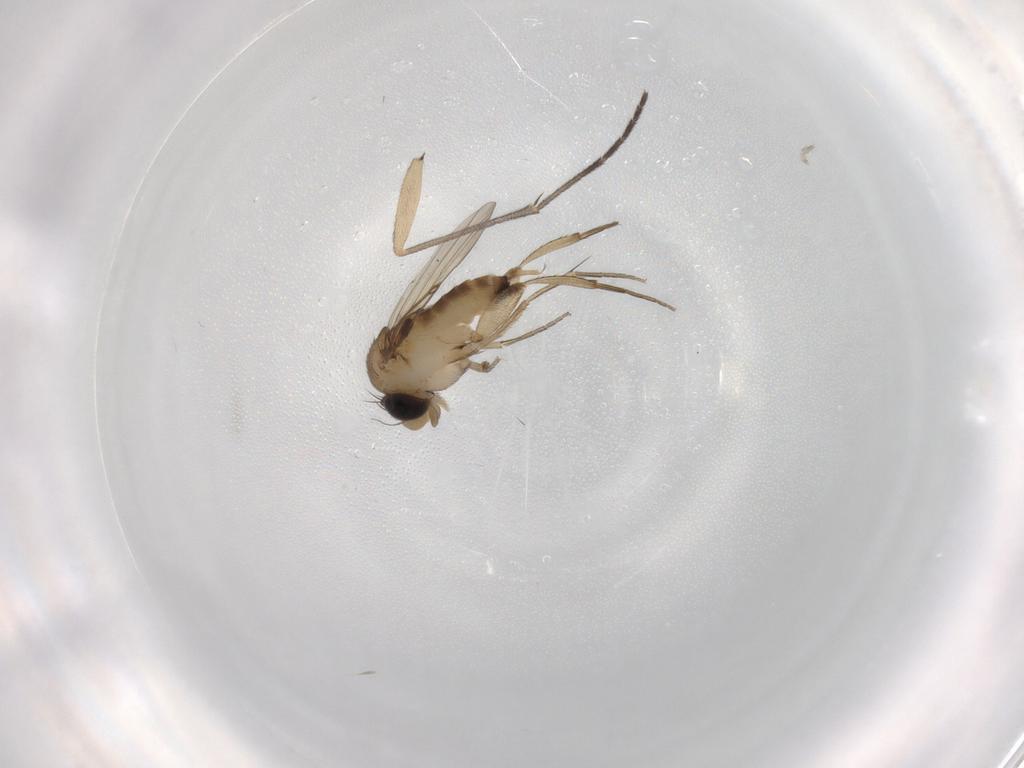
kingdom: Animalia
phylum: Arthropoda
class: Insecta
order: Diptera
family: Phoridae
